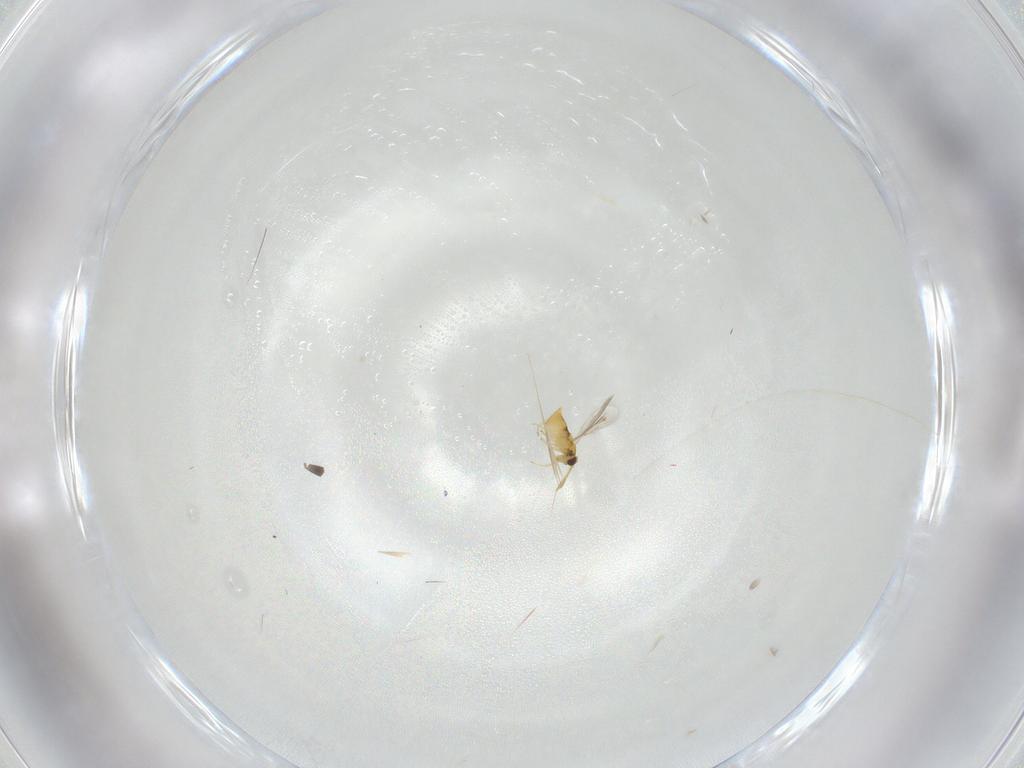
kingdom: Animalia
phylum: Arthropoda
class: Insecta
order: Hymenoptera
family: Aphelinidae
